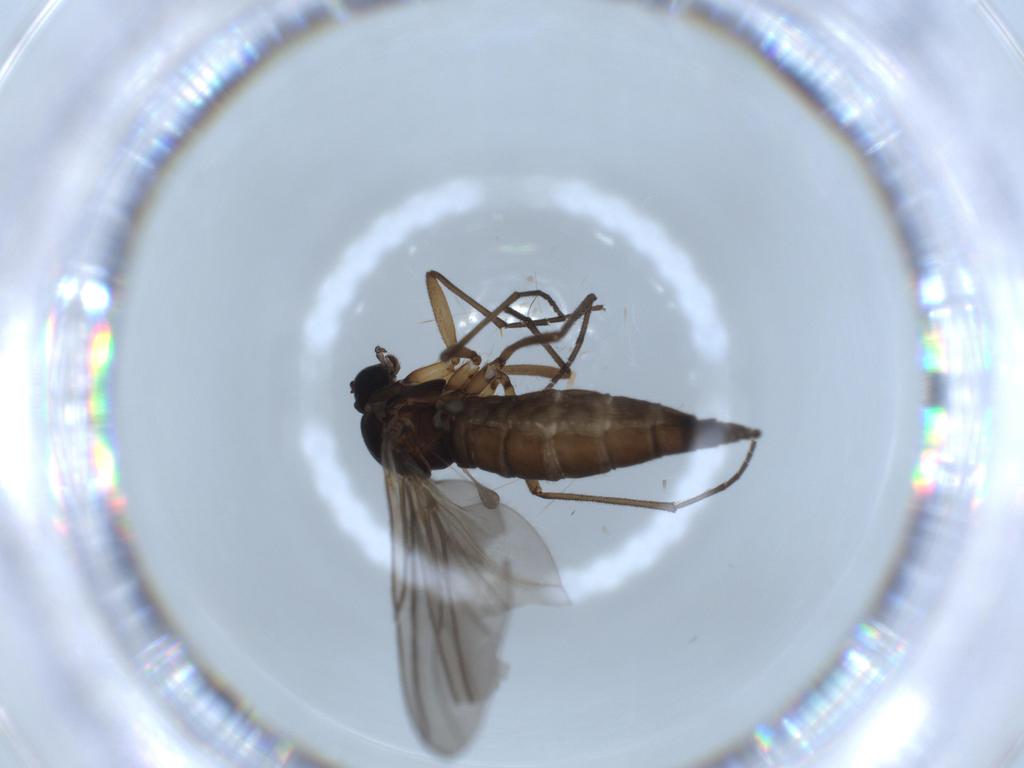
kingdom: Animalia
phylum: Arthropoda
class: Insecta
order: Diptera
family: Sciaridae
